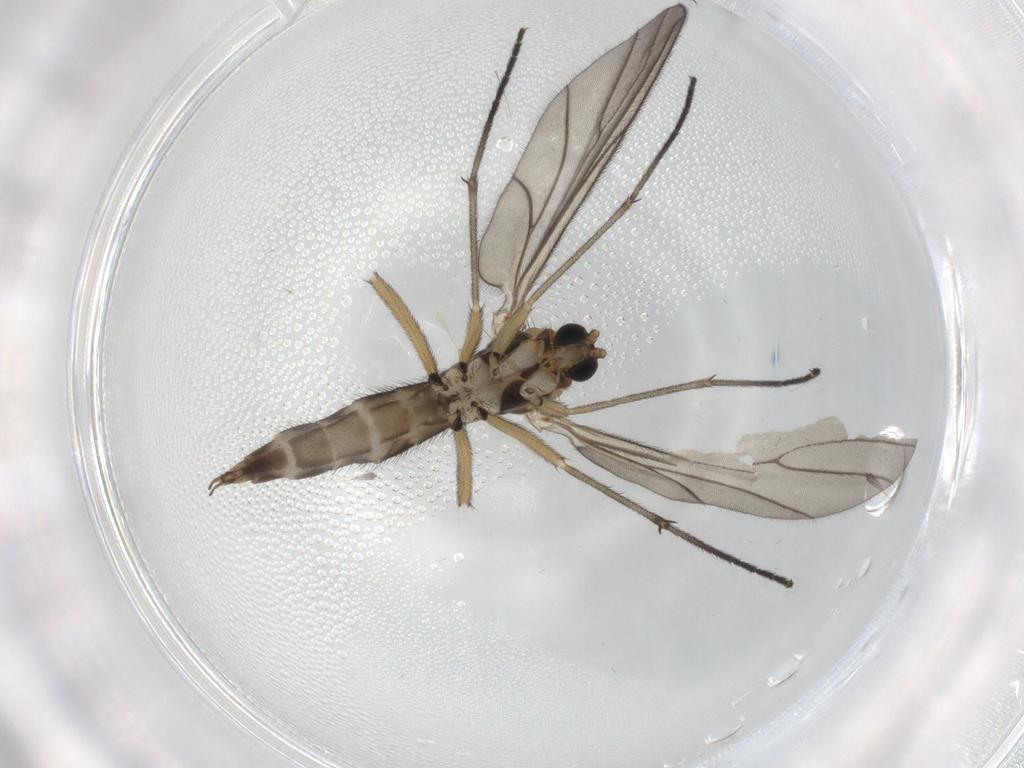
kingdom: Animalia
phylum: Arthropoda
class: Insecta
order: Diptera
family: Sciaridae
